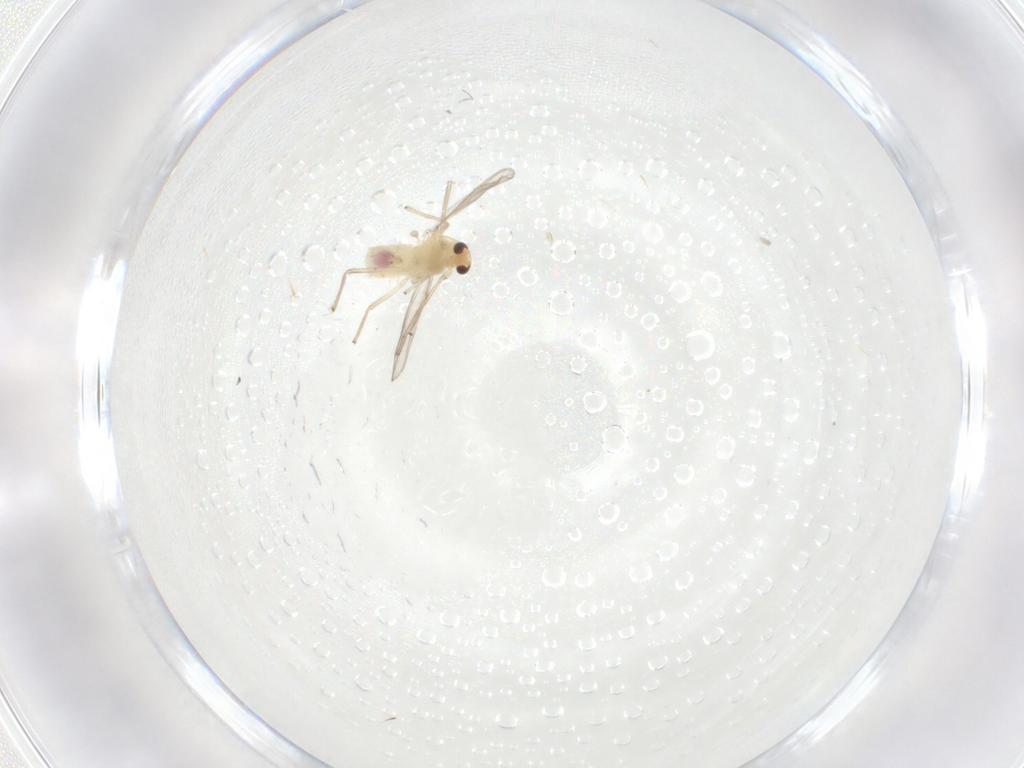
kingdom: Animalia
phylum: Arthropoda
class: Insecta
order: Diptera
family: Chironomidae
